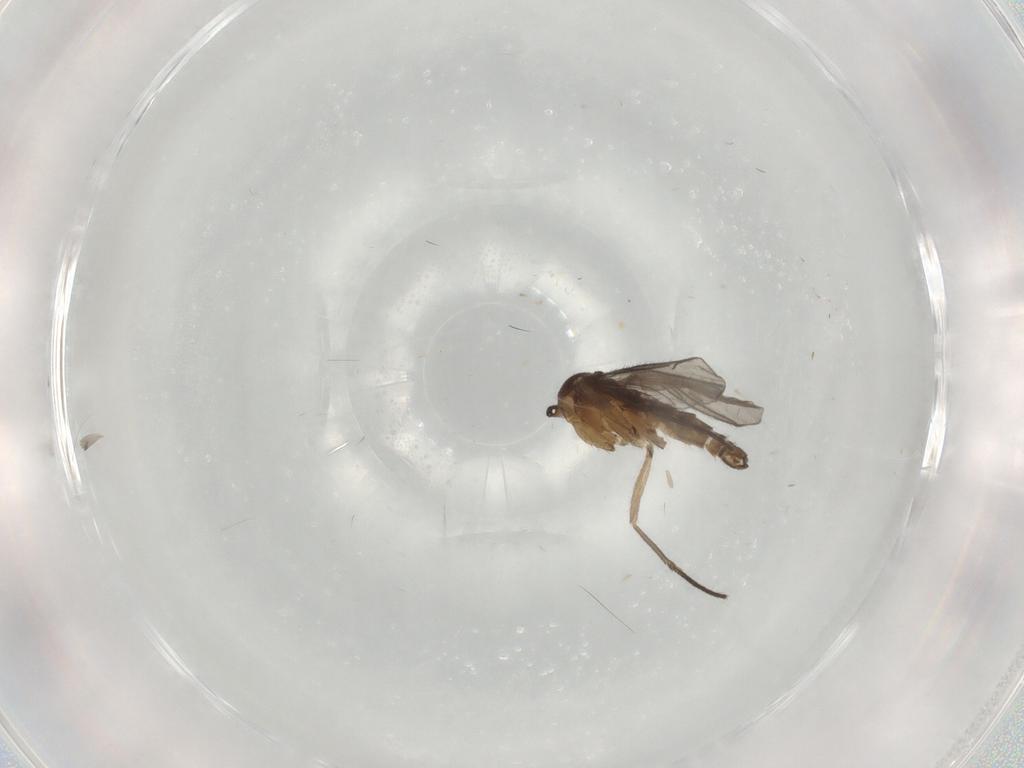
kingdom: Animalia
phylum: Arthropoda
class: Insecta
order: Diptera
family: Sciaridae
